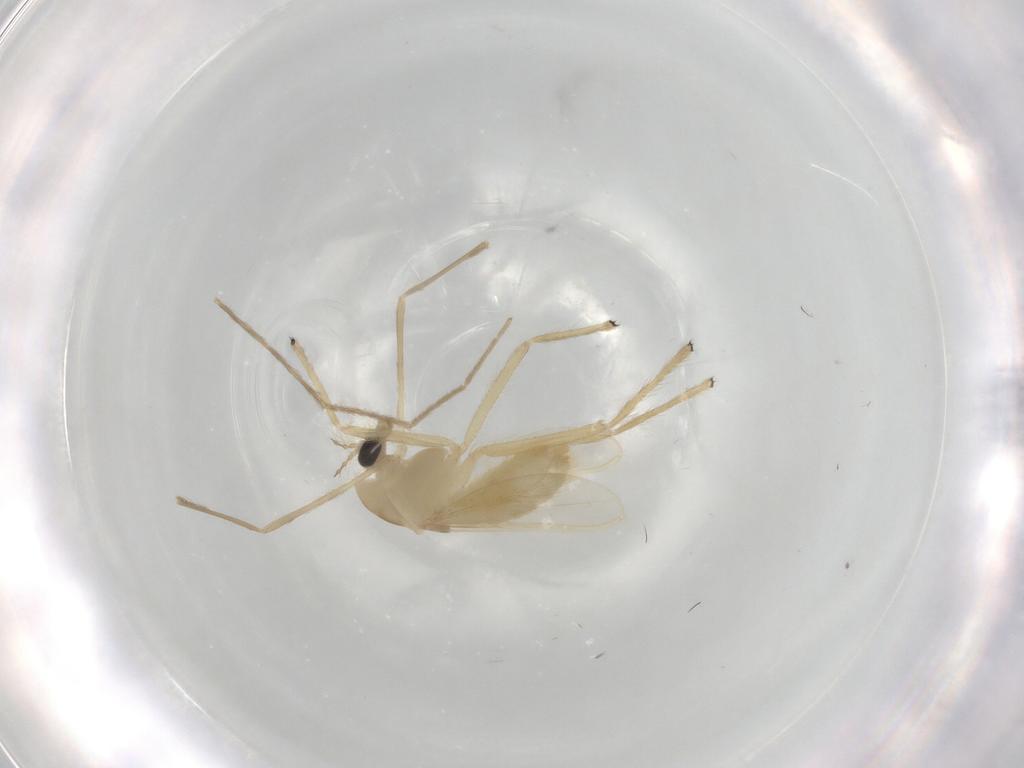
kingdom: Animalia
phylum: Arthropoda
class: Insecta
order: Diptera
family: Chironomidae
